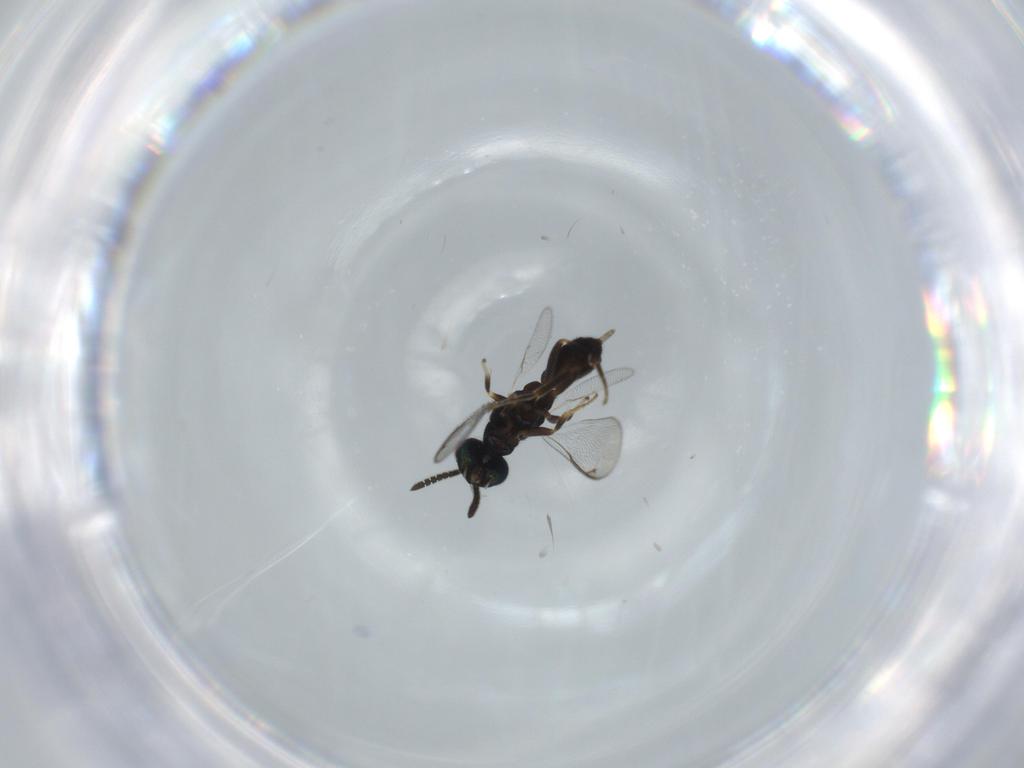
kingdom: Animalia
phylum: Arthropoda
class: Insecta
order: Hymenoptera
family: Cleonyminae
